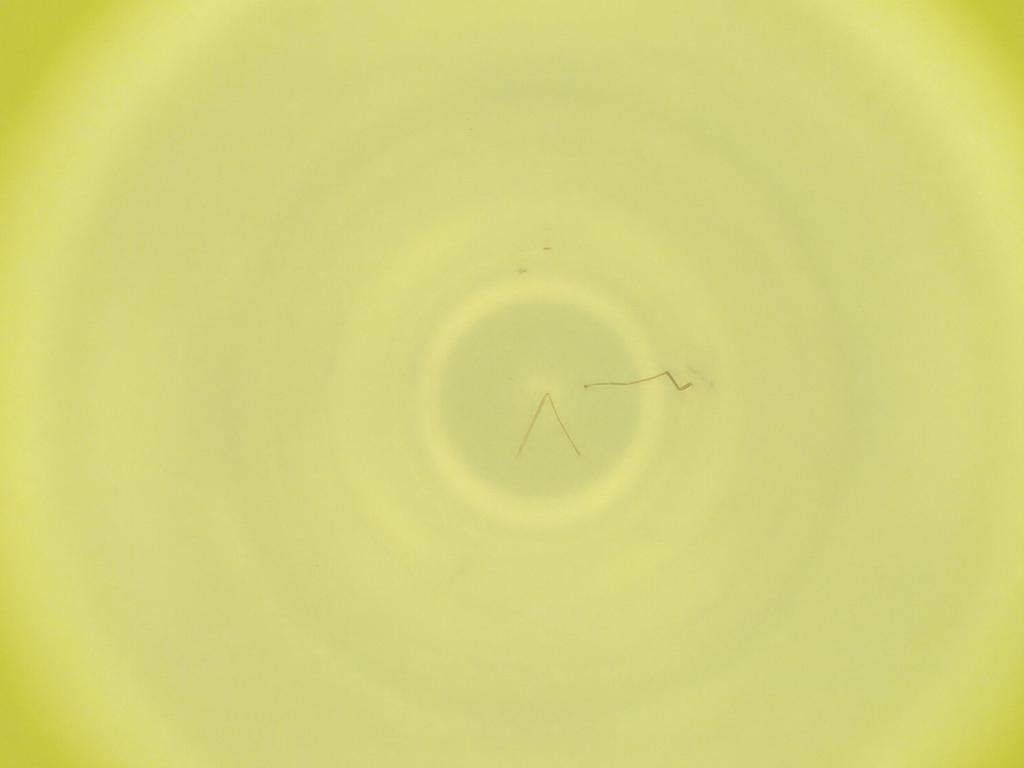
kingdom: Animalia
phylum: Arthropoda
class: Insecta
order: Diptera
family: Cecidomyiidae
